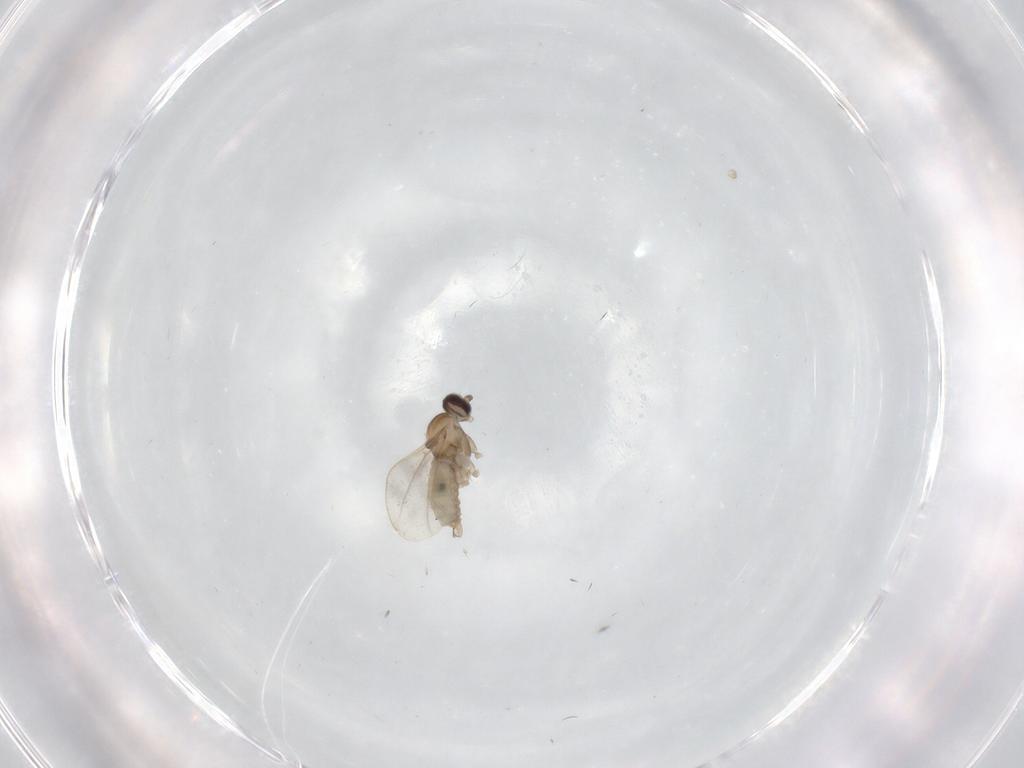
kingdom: Animalia
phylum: Arthropoda
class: Insecta
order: Diptera
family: Cecidomyiidae
